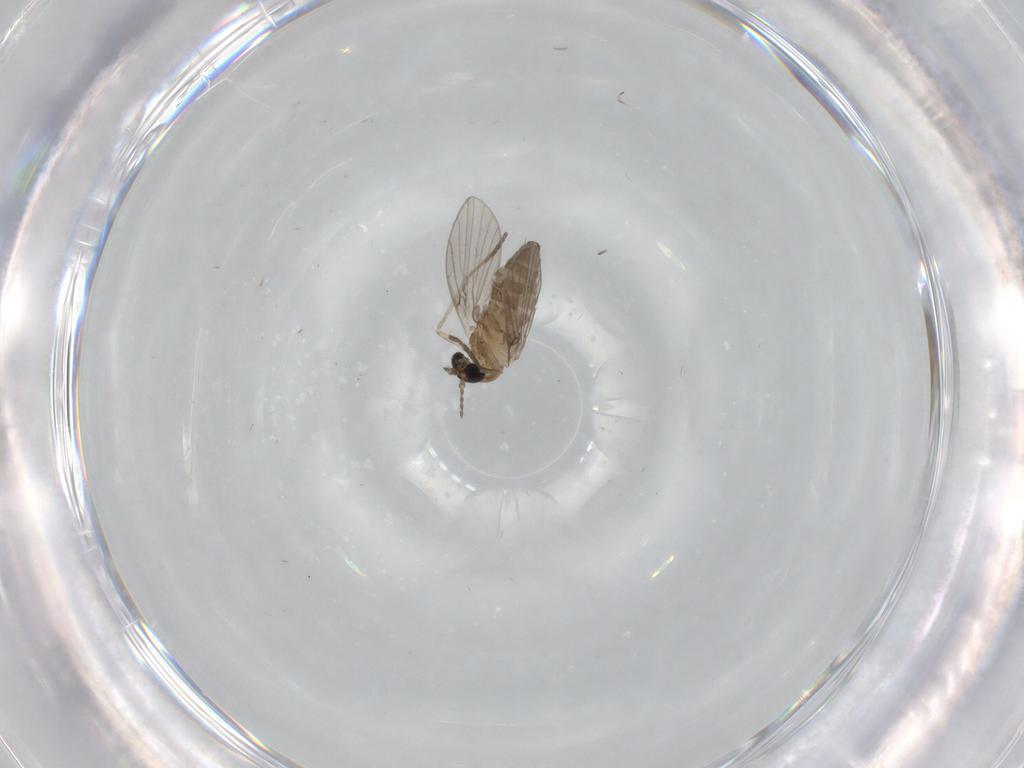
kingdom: Animalia
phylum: Arthropoda
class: Insecta
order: Diptera
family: Psychodidae
